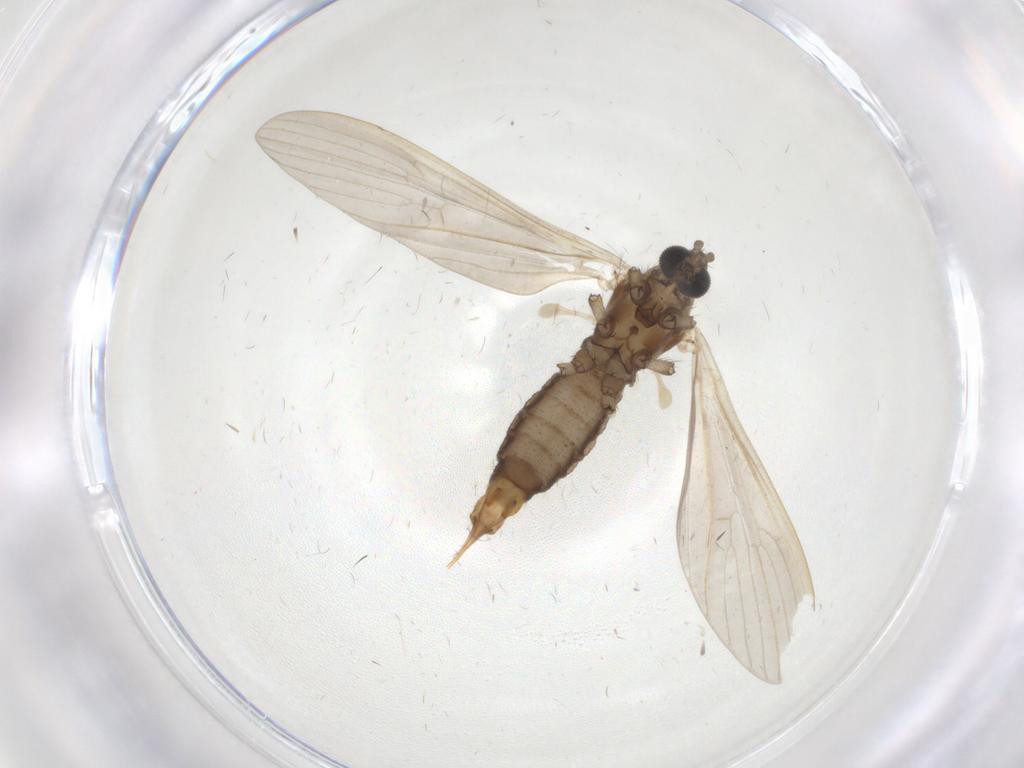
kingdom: Animalia
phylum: Arthropoda
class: Insecta
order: Diptera
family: Limoniidae
